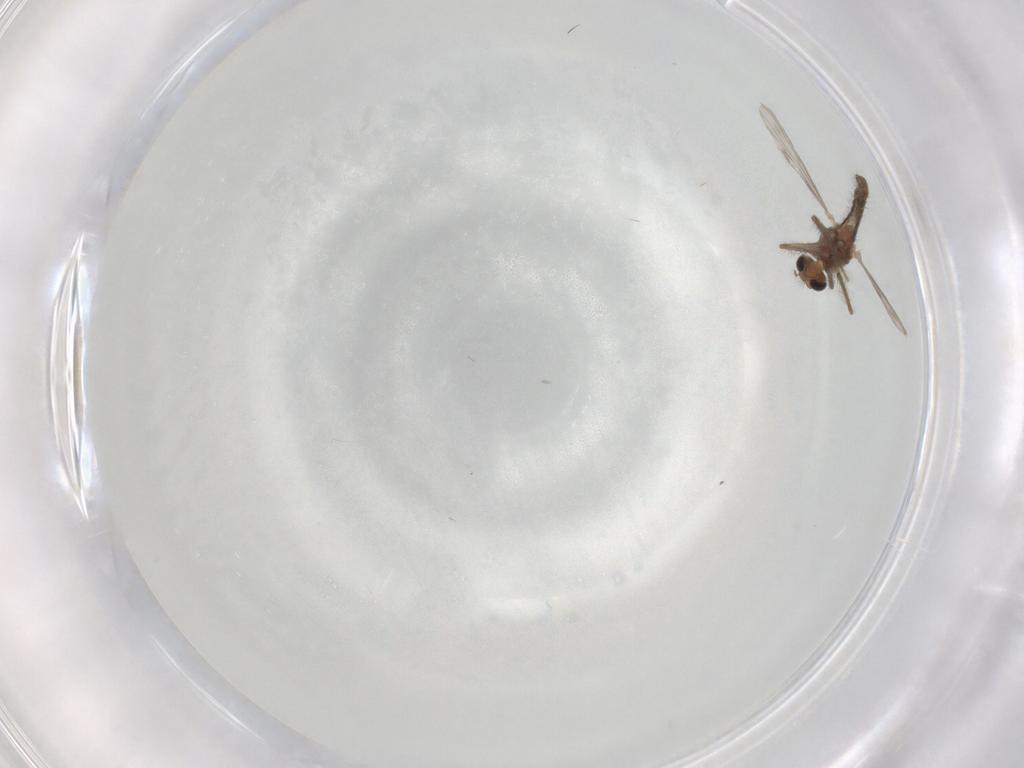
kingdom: Animalia
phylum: Arthropoda
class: Insecta
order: Diptera
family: Chironomidae
